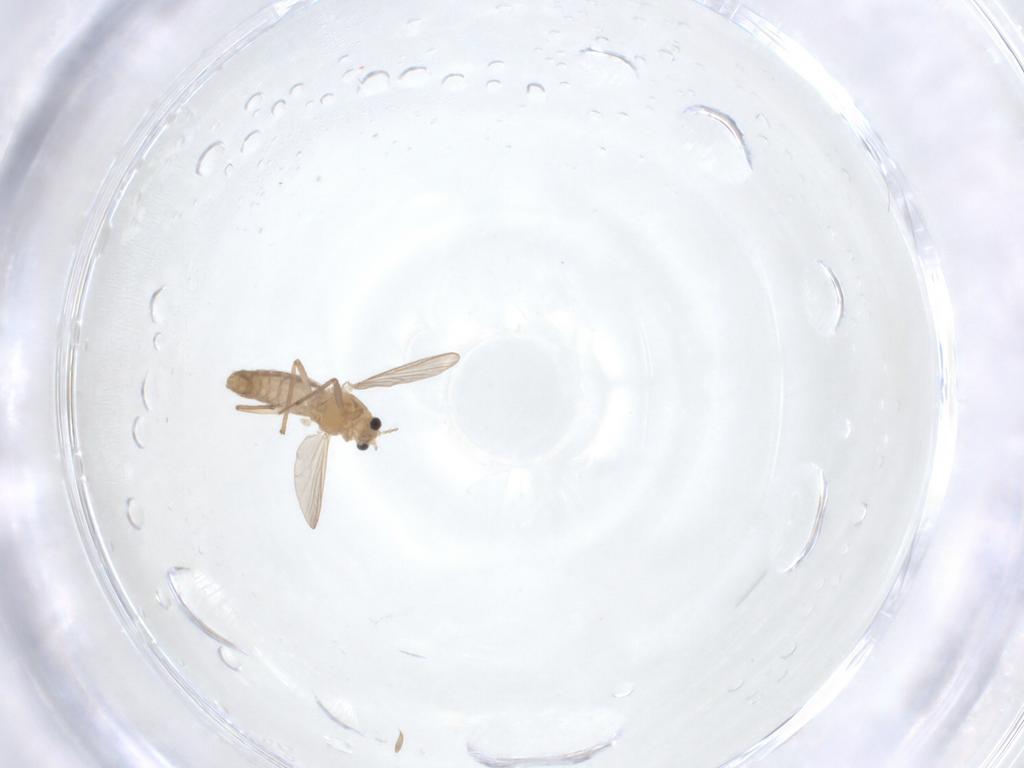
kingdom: Animalia
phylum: Arthropoda
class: Insecta
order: Diptera
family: Chironomidae
